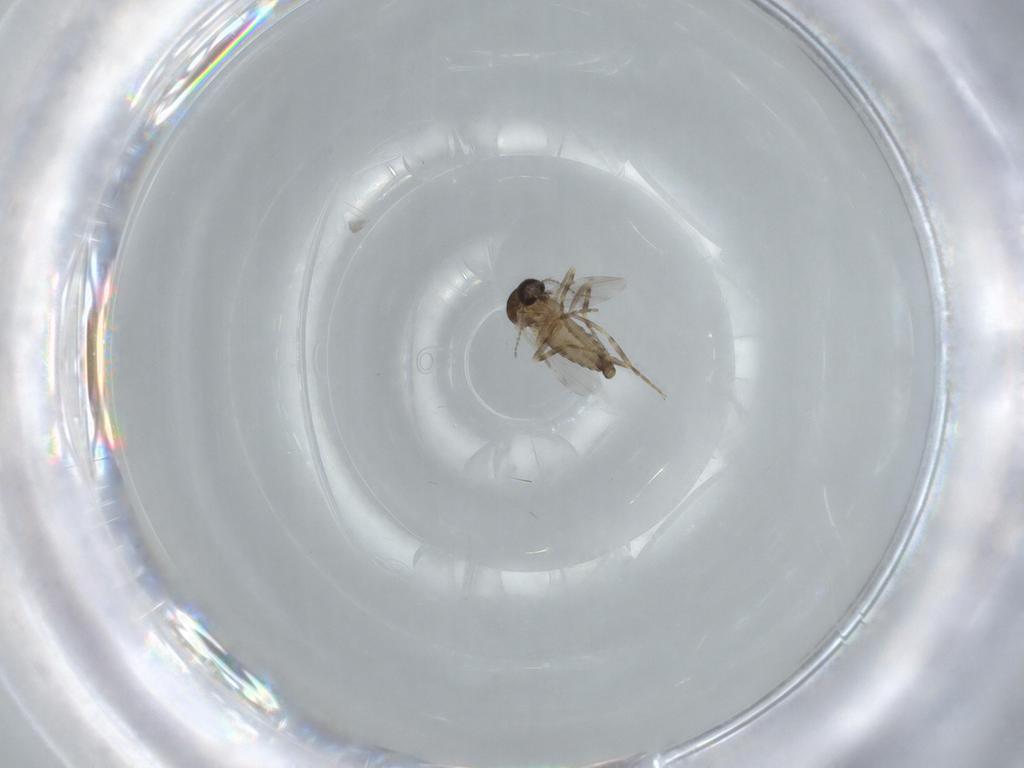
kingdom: Animalia
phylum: Arthropoda
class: Insecta
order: Diptera
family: Ceratopogonidae
